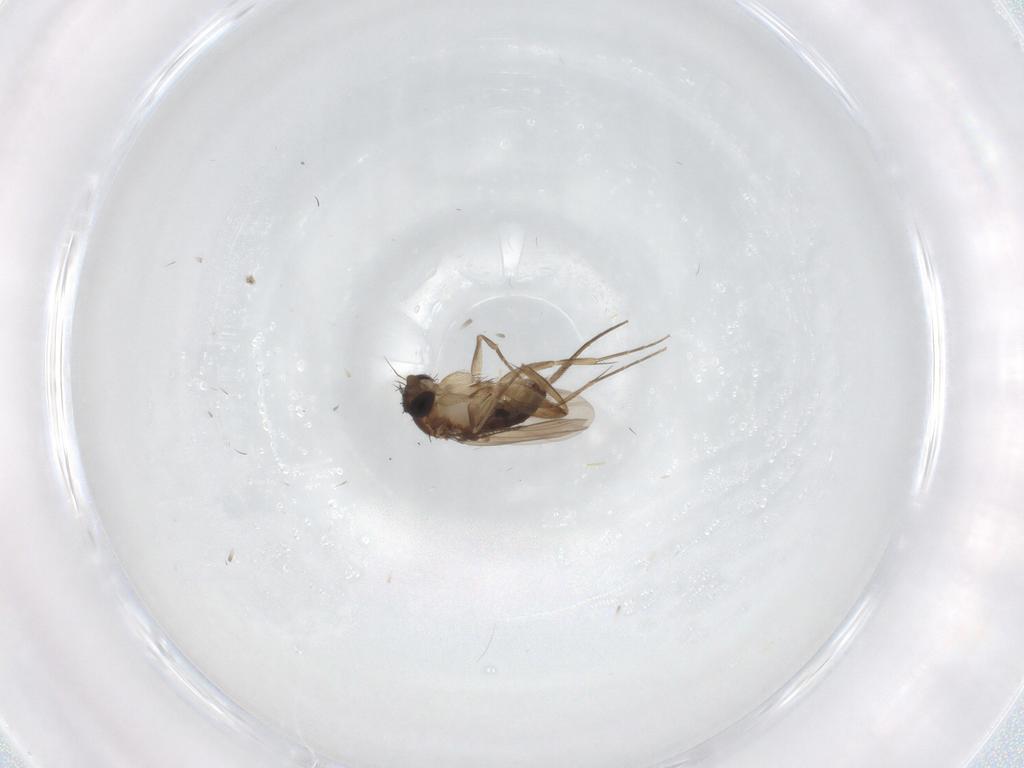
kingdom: Animalia
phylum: Arthropoda
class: Insecta
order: Diptera
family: Phoridae
